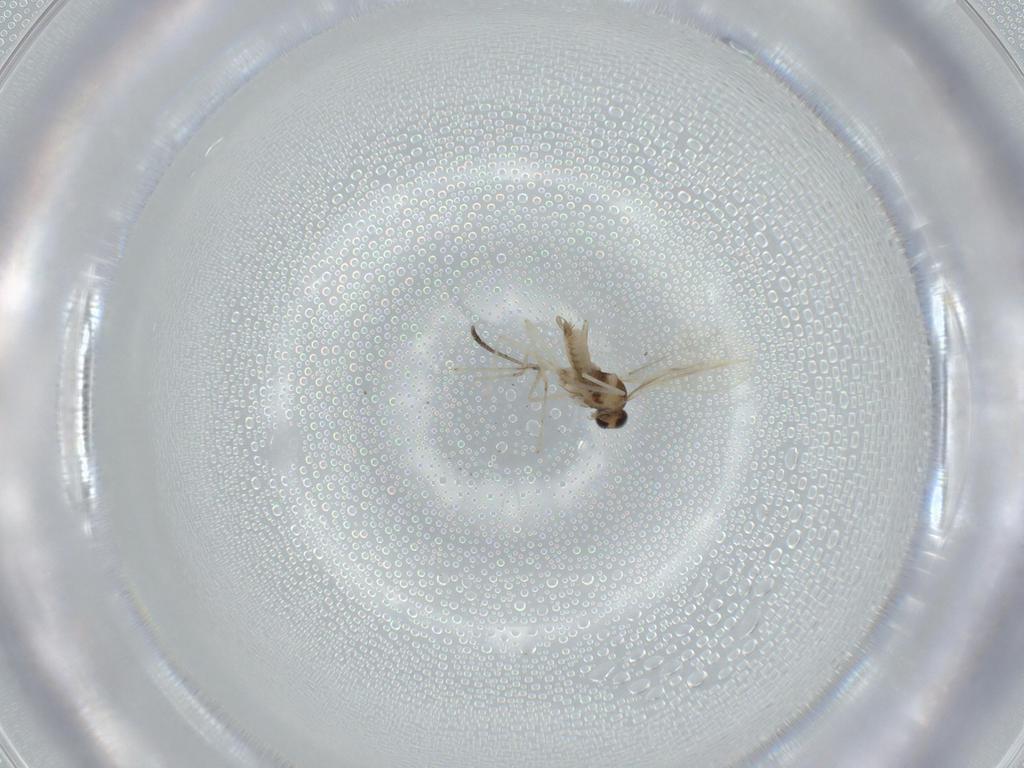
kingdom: Animalia
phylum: Arthropoda
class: Insecta
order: Diptera
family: Cecidomyiidae
